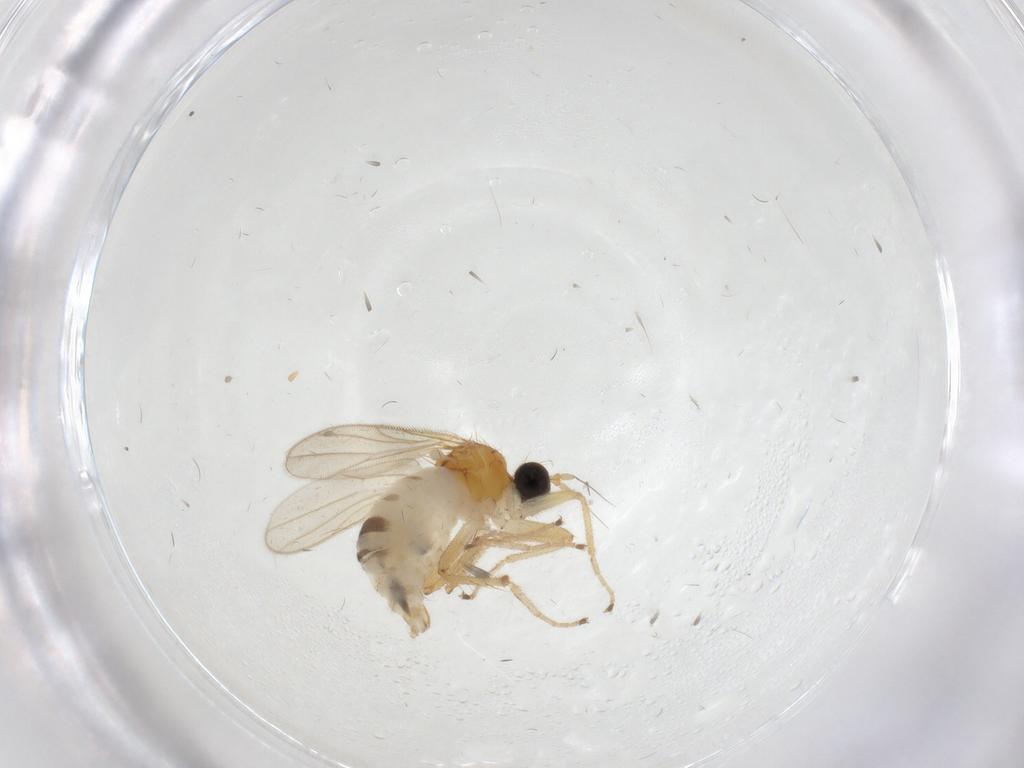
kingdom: Animalia
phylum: Arthropoda
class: Insecta
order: Diptera
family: Hybotidae
